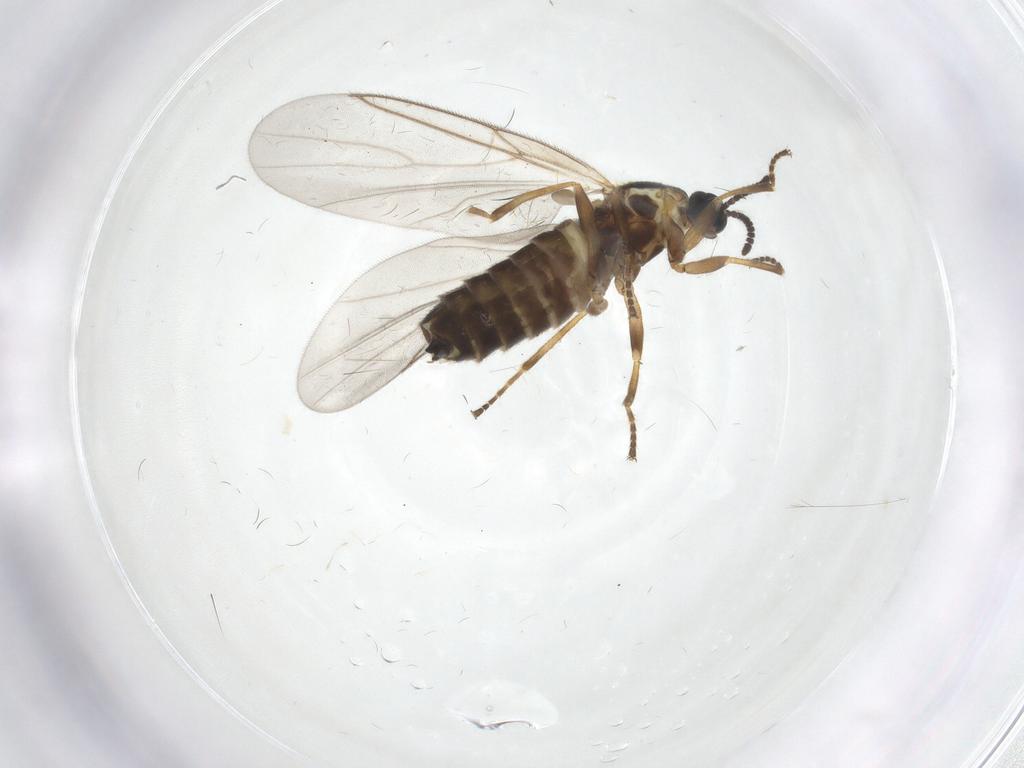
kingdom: Animalia
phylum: Arthropoda
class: Insecta
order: Diptera
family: Scatopsidae
